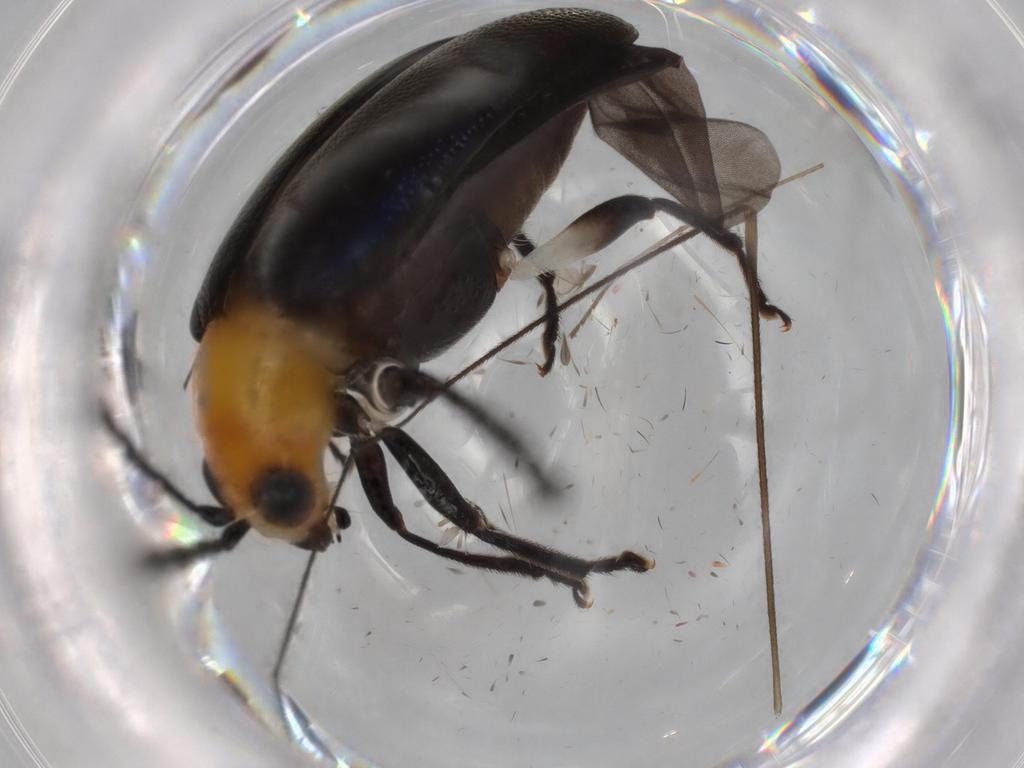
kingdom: Animalia
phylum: Arthropoda
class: Insecta
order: Coleoptera
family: Chrysomelidae
